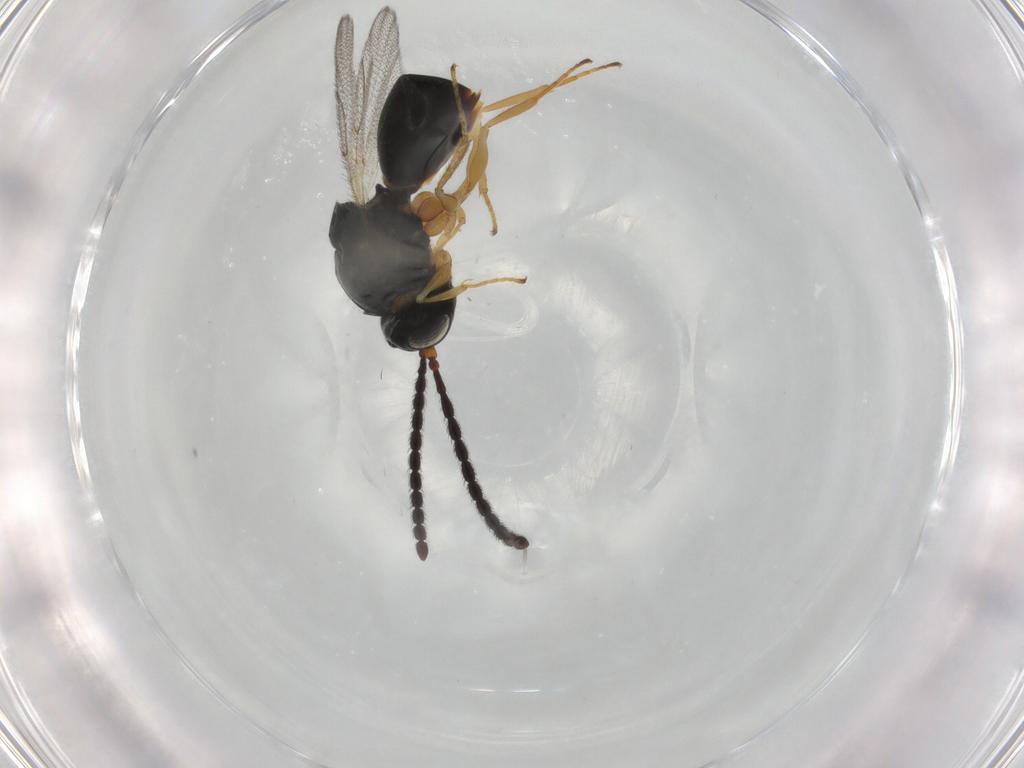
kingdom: Animalia
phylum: Arthropoda
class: Insecta
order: Hymenoptera
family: Figitidae
